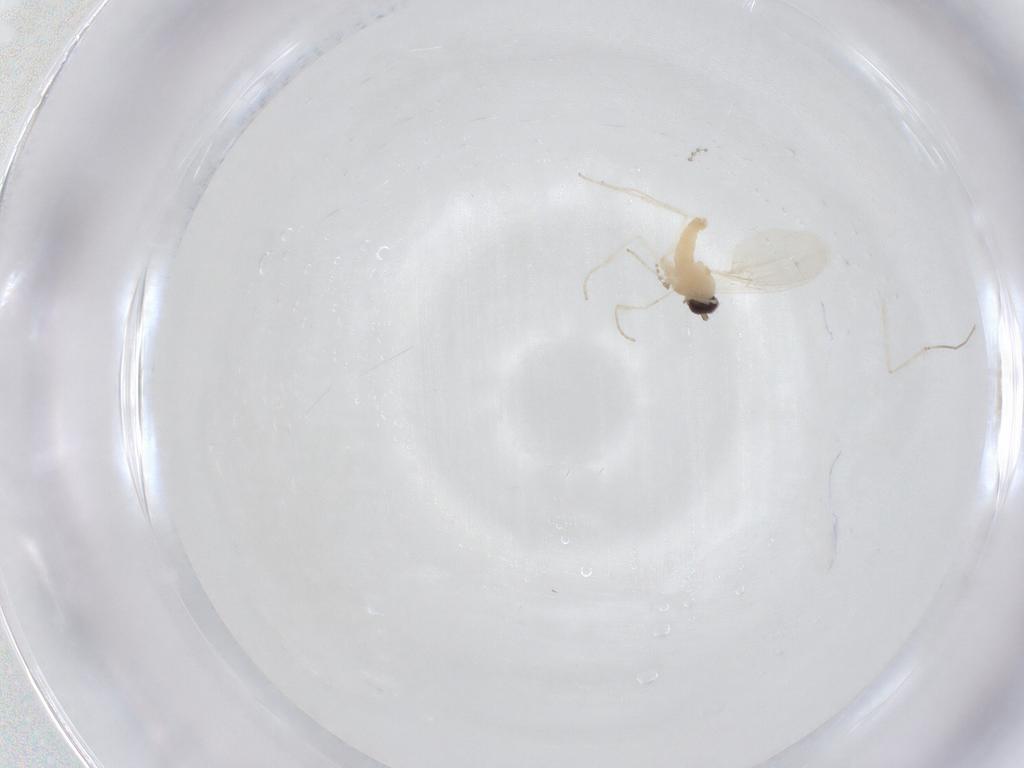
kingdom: Animalia
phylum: Arthropoda
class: Insecta
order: Diptera
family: Cecidomyiidae
